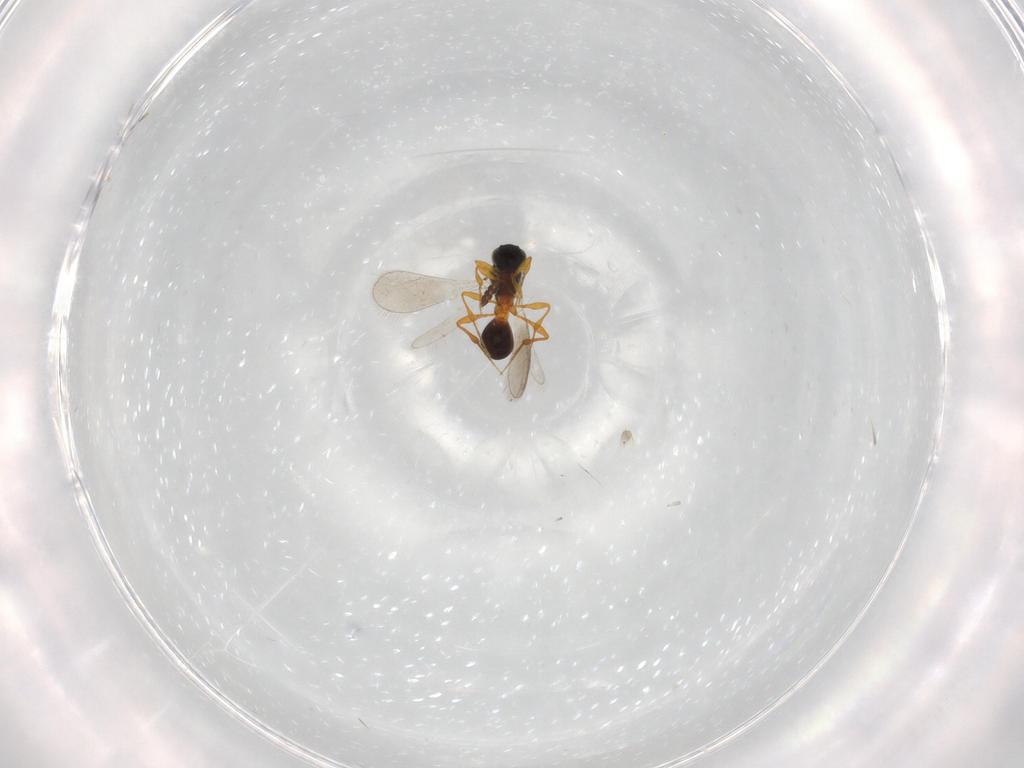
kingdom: Animalia
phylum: Arthropoda
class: Insecta
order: Hymenoptera
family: Platygastridae
